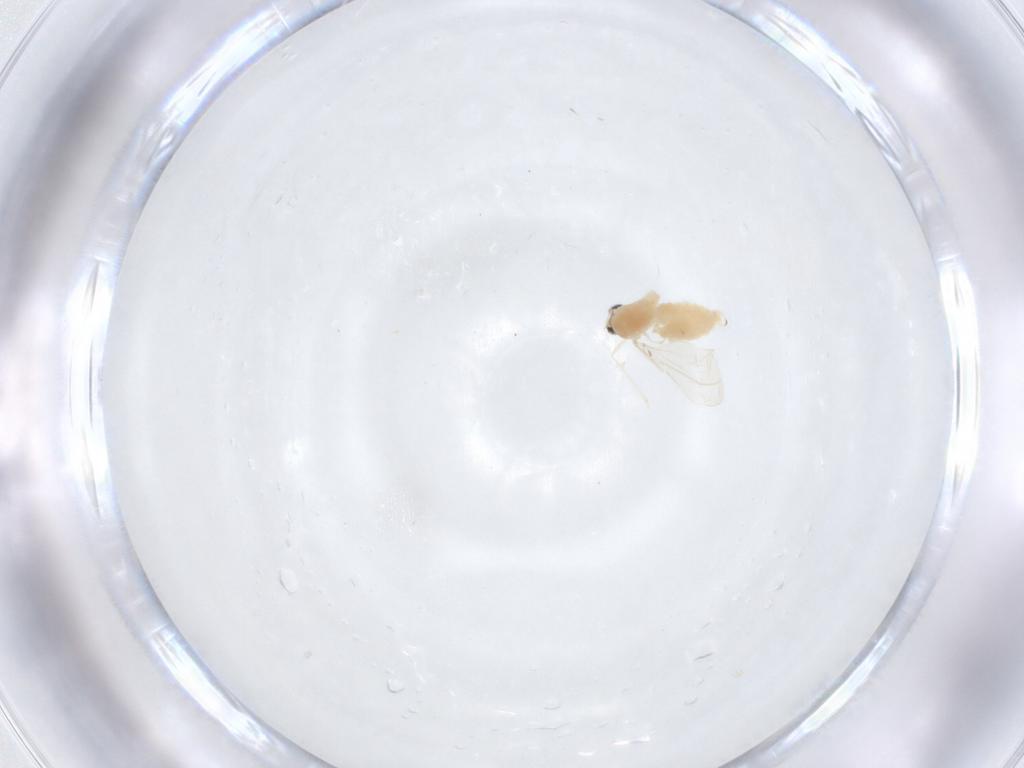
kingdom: Animalia
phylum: Arthropoda
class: Insecta
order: Diptera
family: Cecidomyiidae
